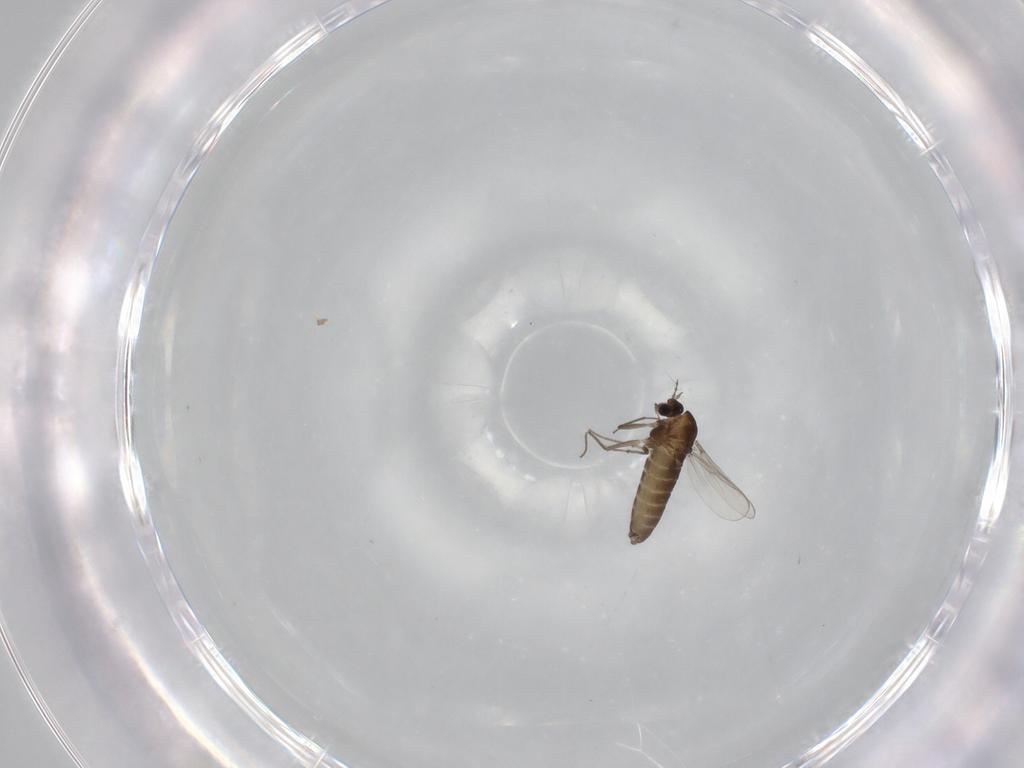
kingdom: Animalia
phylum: Arthropoda
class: Insecta
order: Diptera
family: Chironomidae
